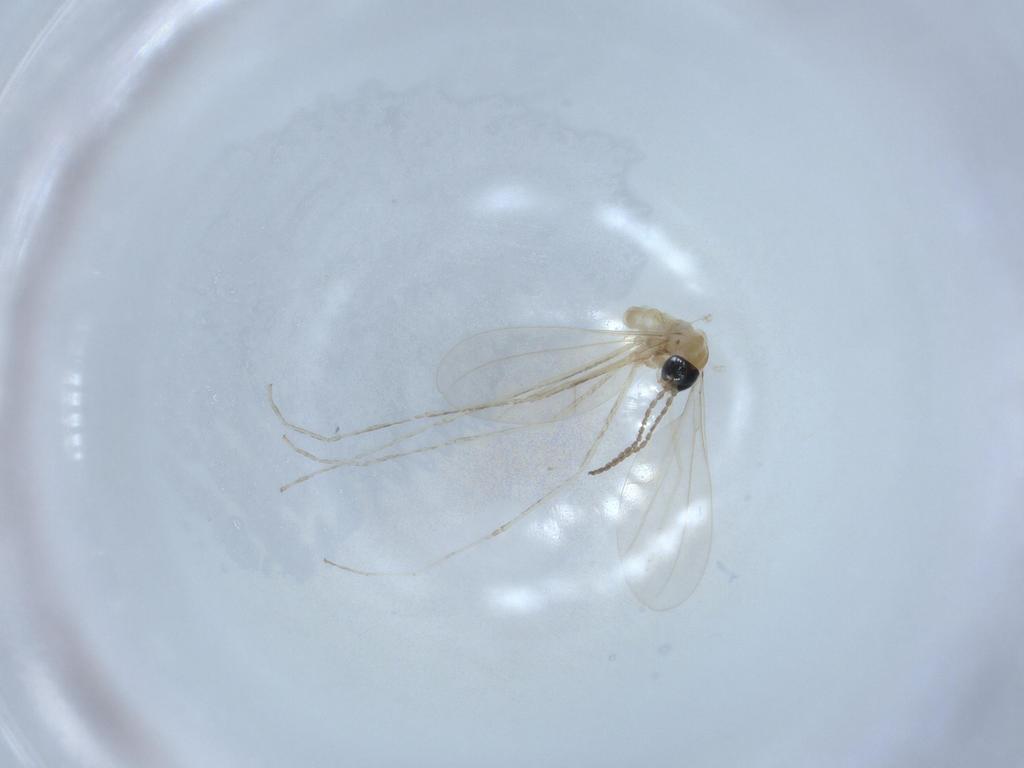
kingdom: Animalia
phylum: Arthropoda
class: Insecta
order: Diptera
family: Cecidomyiidae
